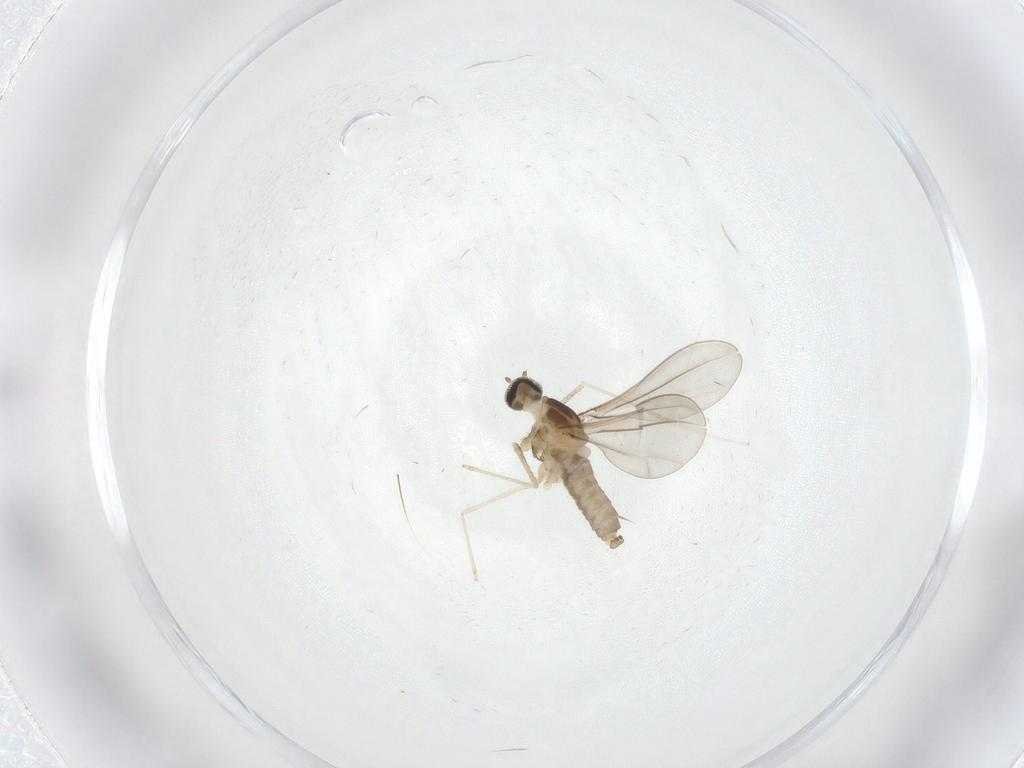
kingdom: Animalia
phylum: Arthropoda
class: Insecta
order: Diptera
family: Cecidomyiidae
